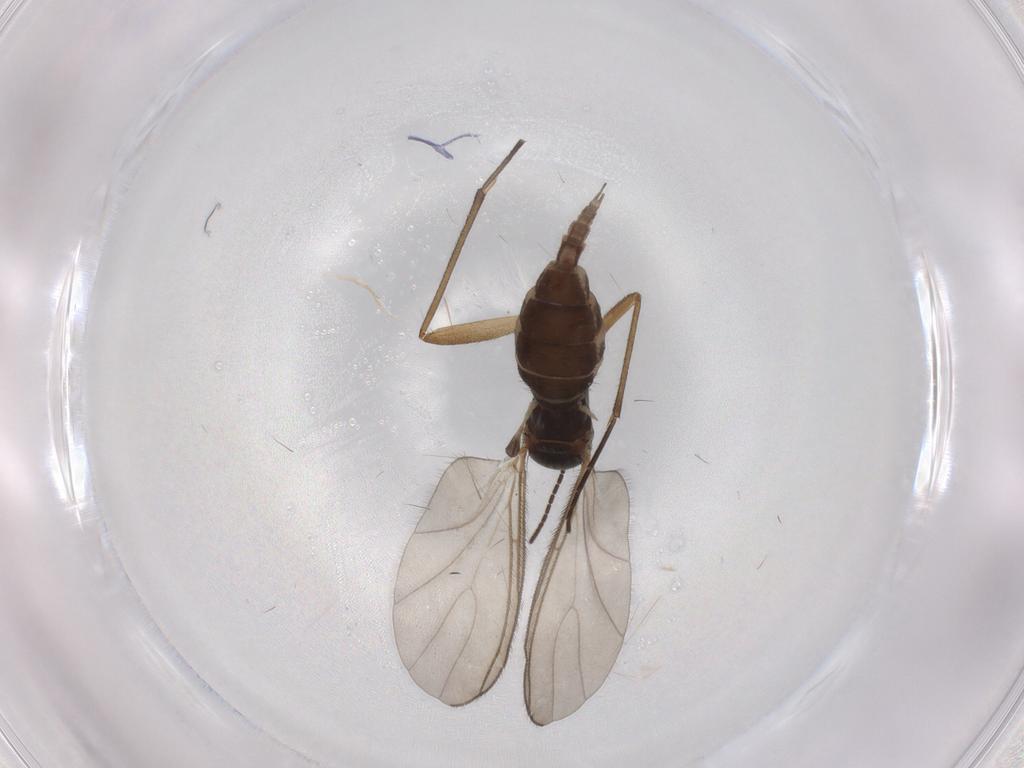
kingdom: Animalia
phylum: Arthropoda
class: Insecta
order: Diptera
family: Sciaridae
